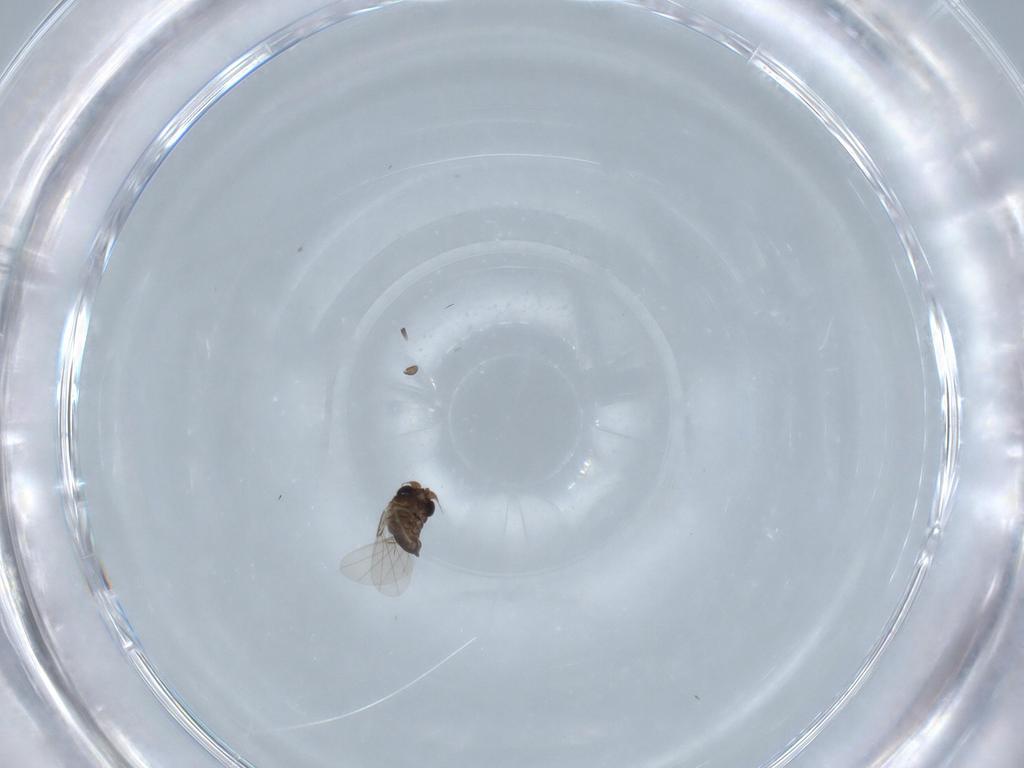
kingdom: Animalia
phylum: Arthropoda
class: Insecta
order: Diptera
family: Psychodidae
